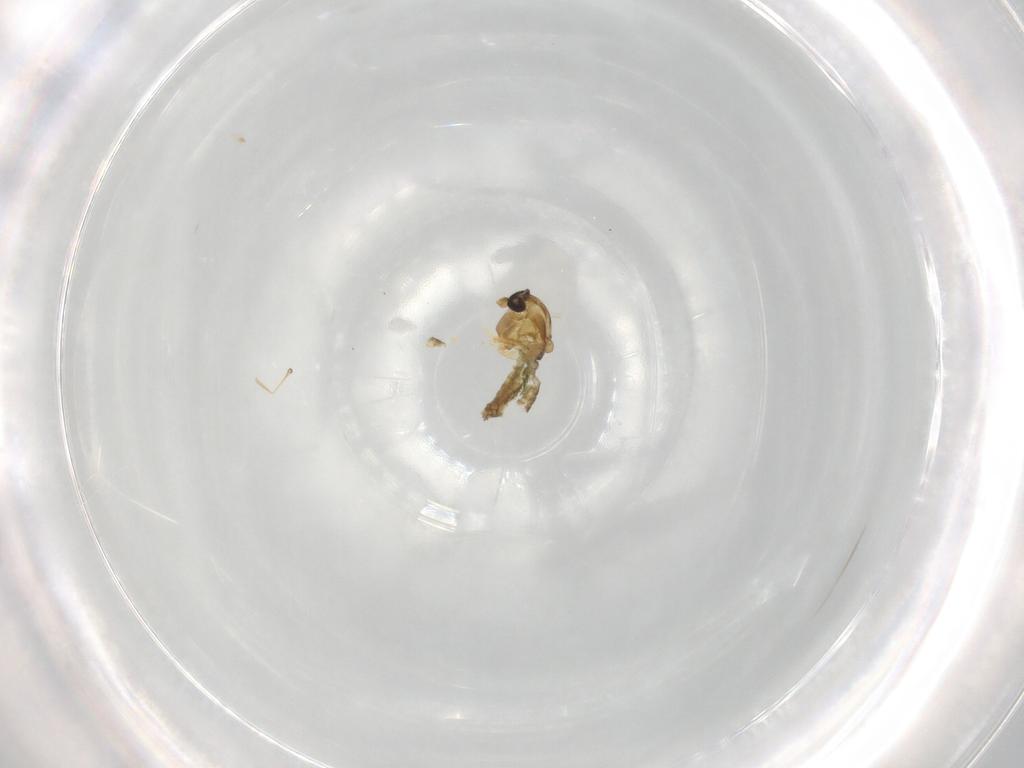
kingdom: Animalia
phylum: Arthropoda
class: Insecta
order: Diptera
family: Chironomidae
